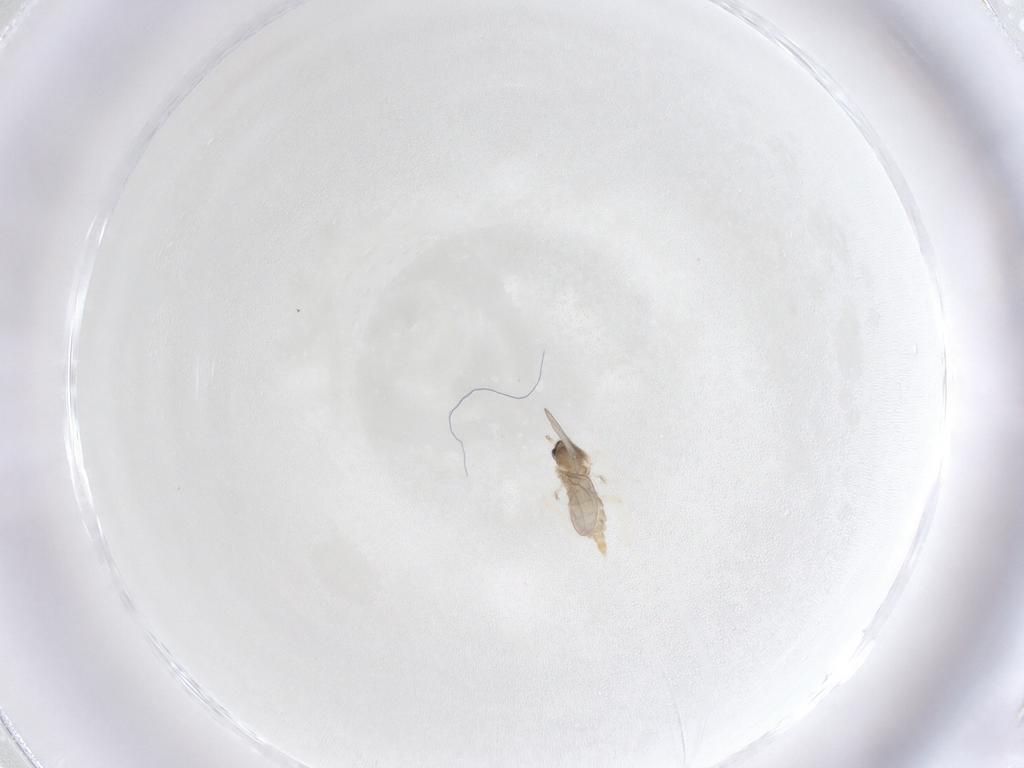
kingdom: Animalia
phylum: Arthropoda
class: Insecta
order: Diptera
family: Cecidomyiidae
